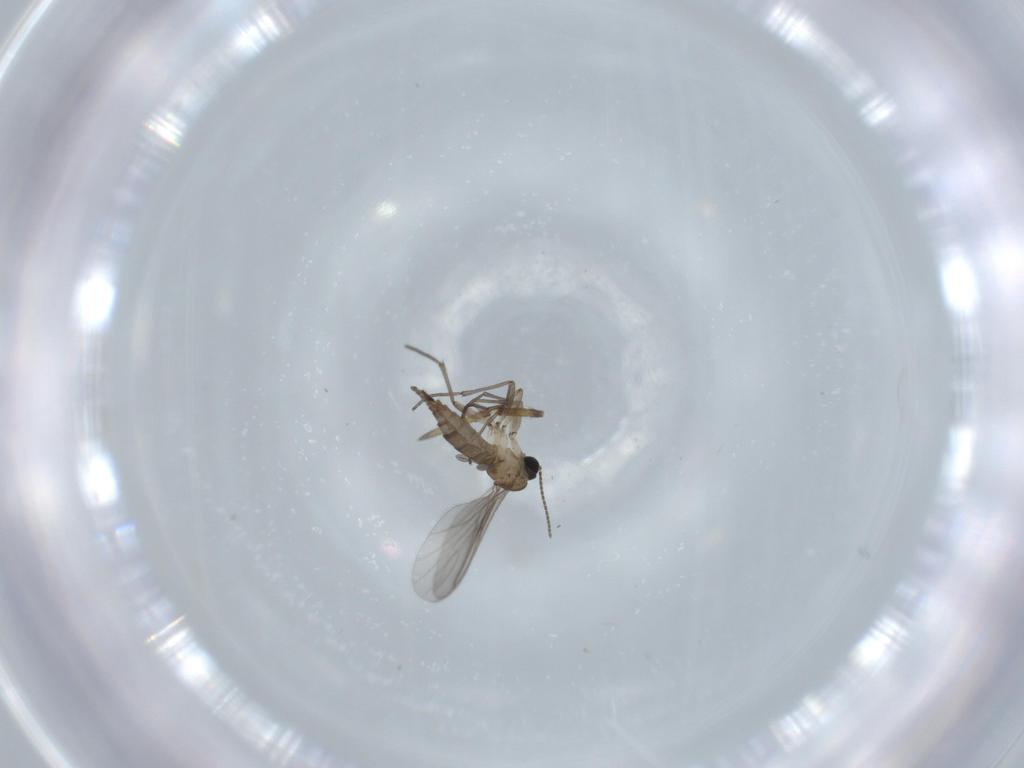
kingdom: Animalia
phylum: Arthropoda
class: Insecta
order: Diptera
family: Sciaridae
